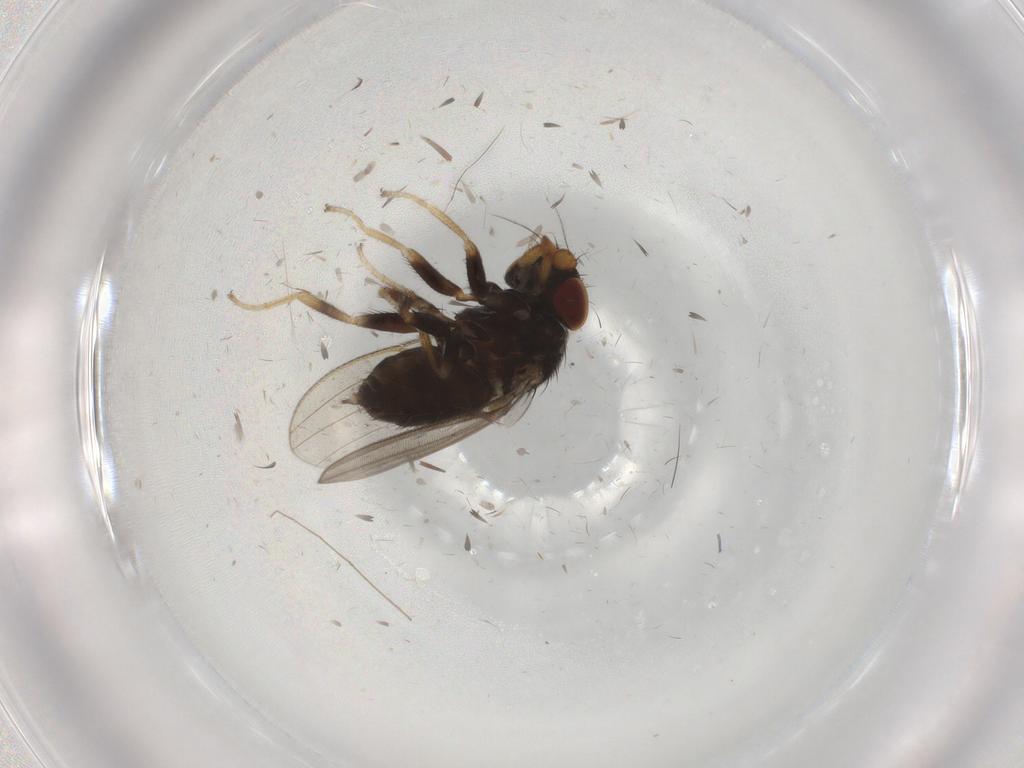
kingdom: Animalia
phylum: Arthropoda
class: Insecta
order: Diptera
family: Milichiidae
